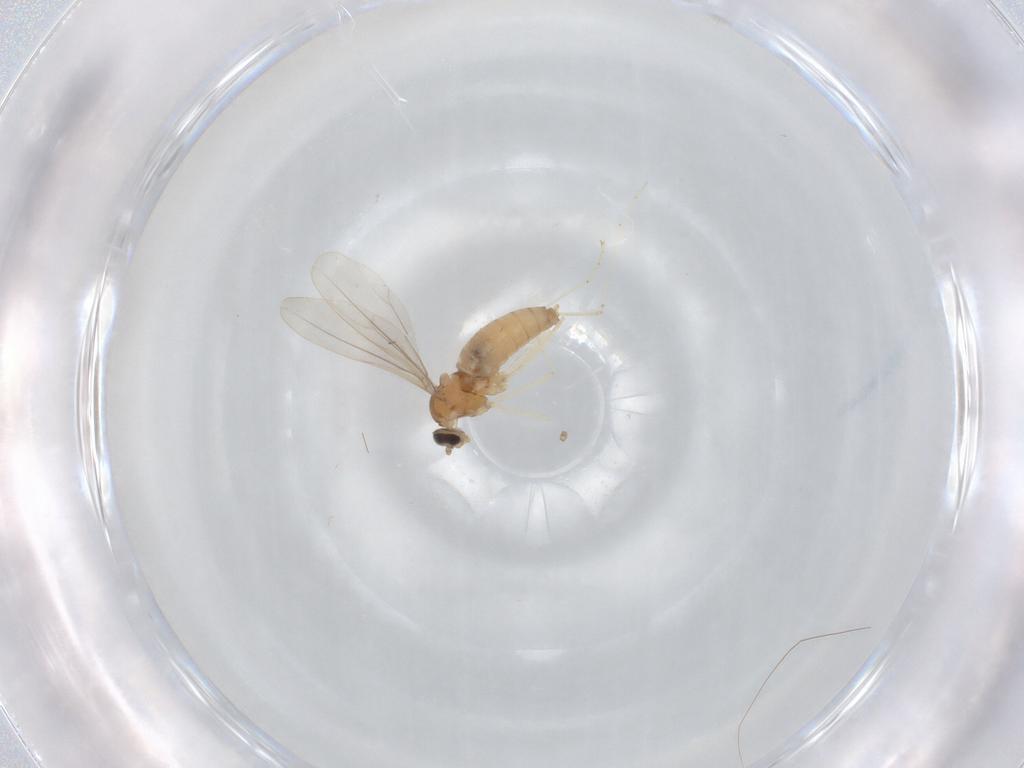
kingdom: Animalia
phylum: Arthropoda
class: Insecta
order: Diptera
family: Cecidomyiidae
